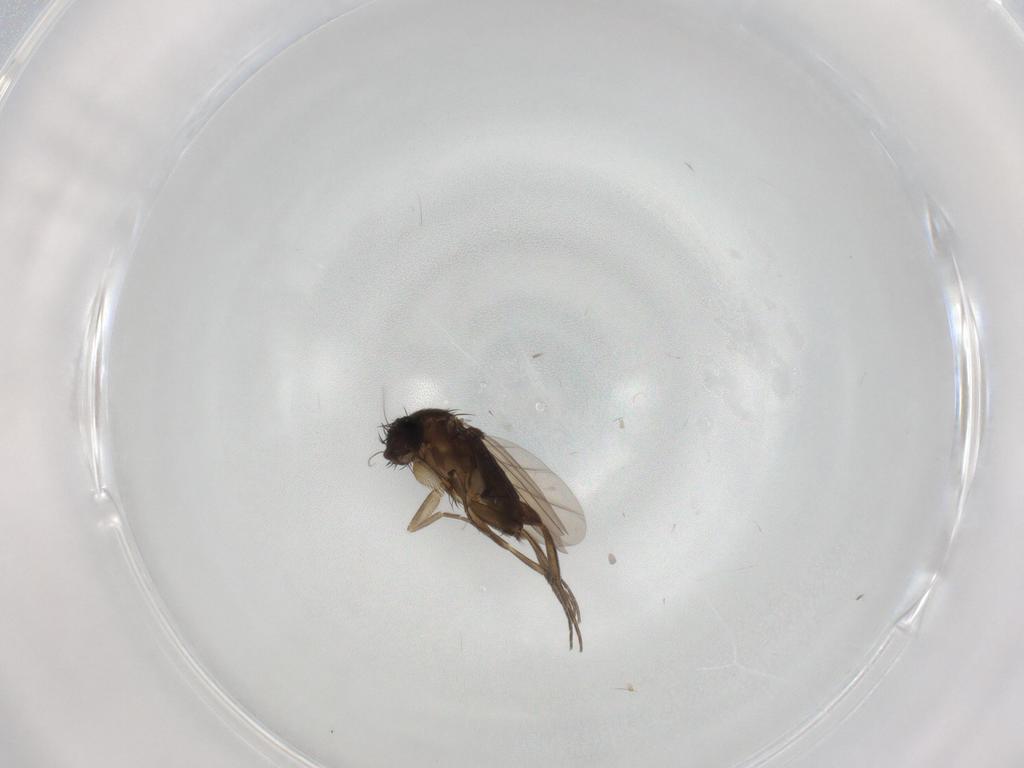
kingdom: Animalia
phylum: Arthropoda
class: Insecta
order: Diptera
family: Phoridae
